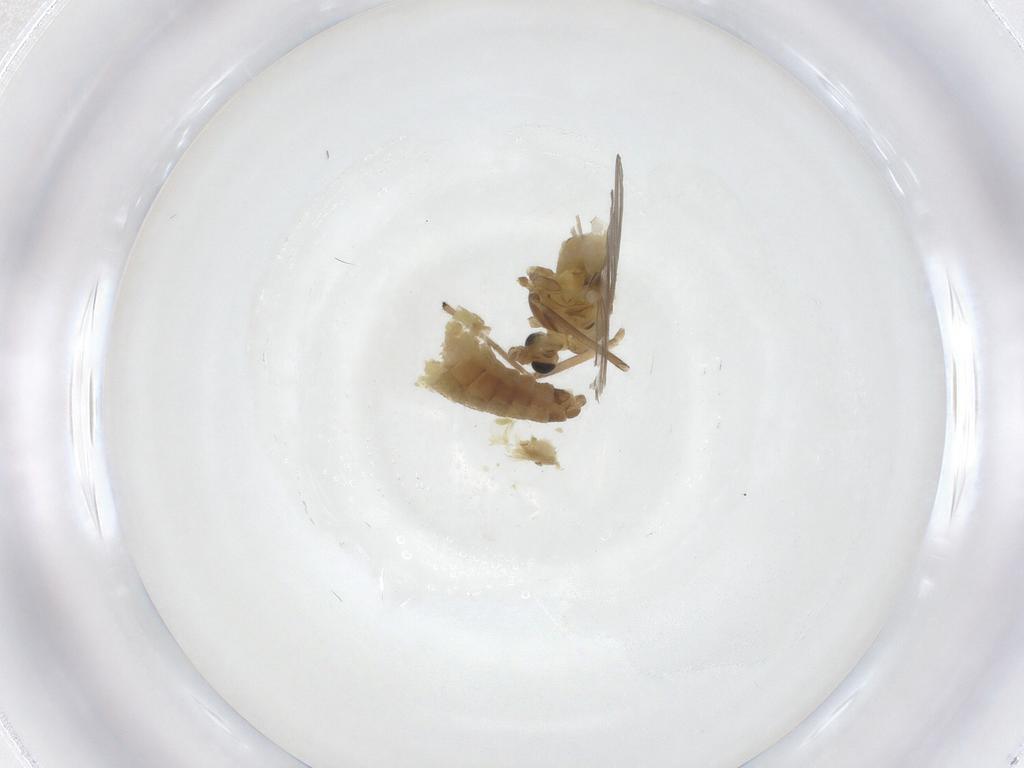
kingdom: Animalia
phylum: Arthropoda
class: Insecta
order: Diptera
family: Chironomidae
